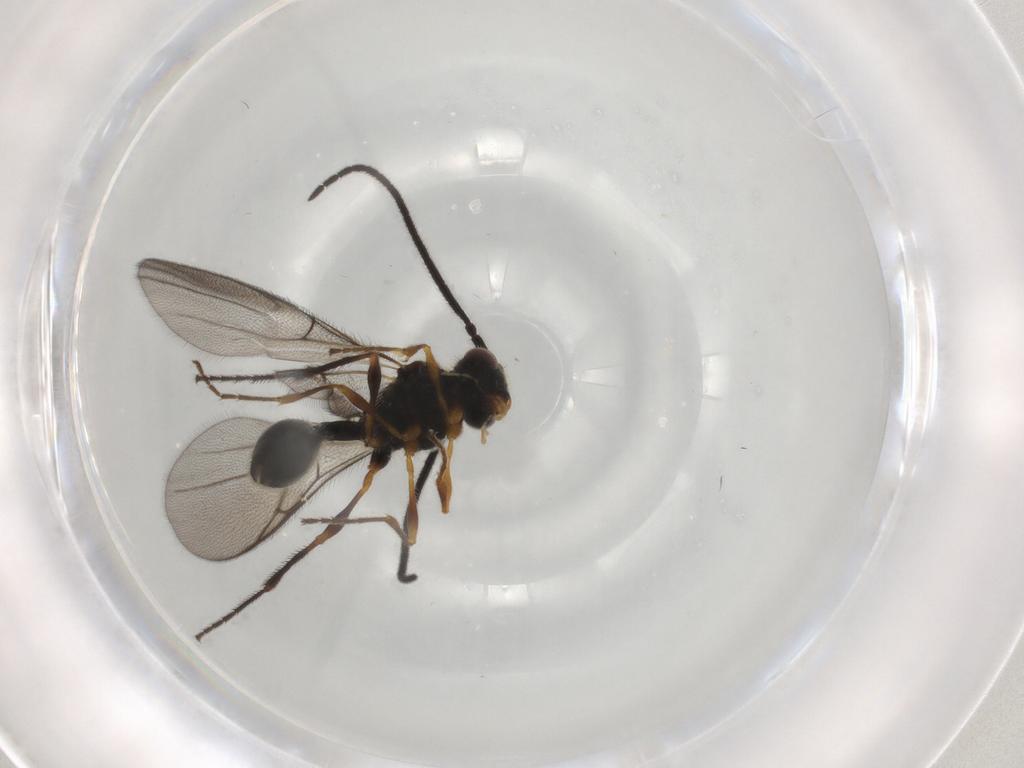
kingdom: Animalia
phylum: Arthropoda
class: Insecta
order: Hymenoptera
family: Diapriidae
